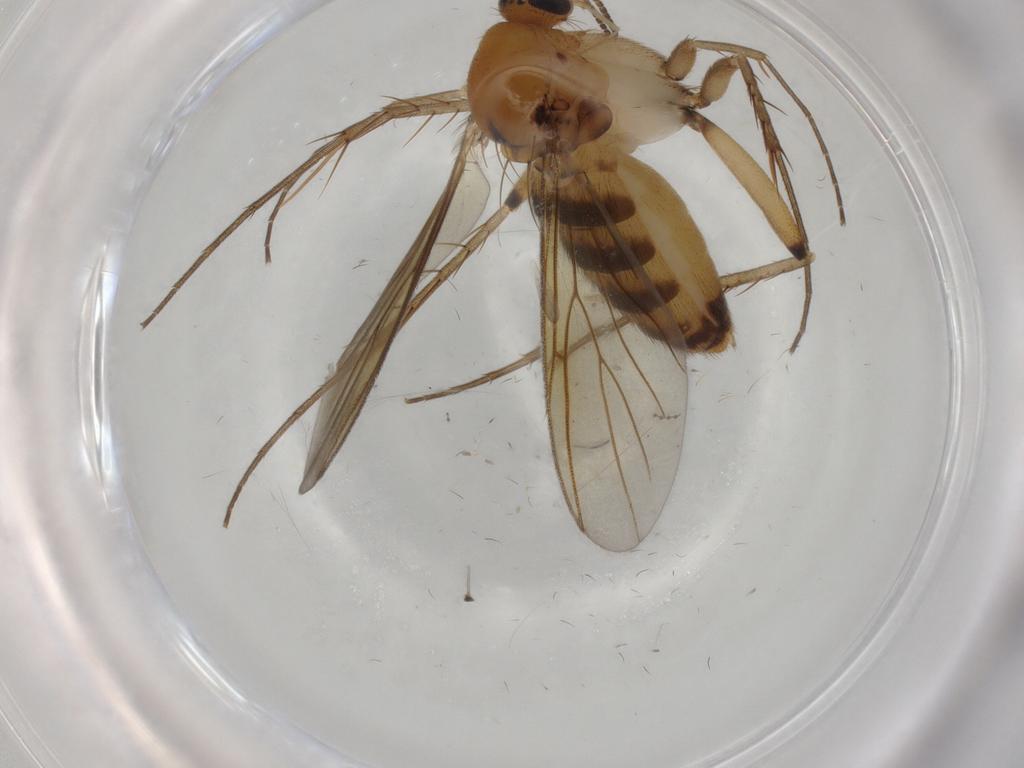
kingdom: Animalia
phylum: Arthropoda
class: Insecta
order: Diptera
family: Mycetophilidae
